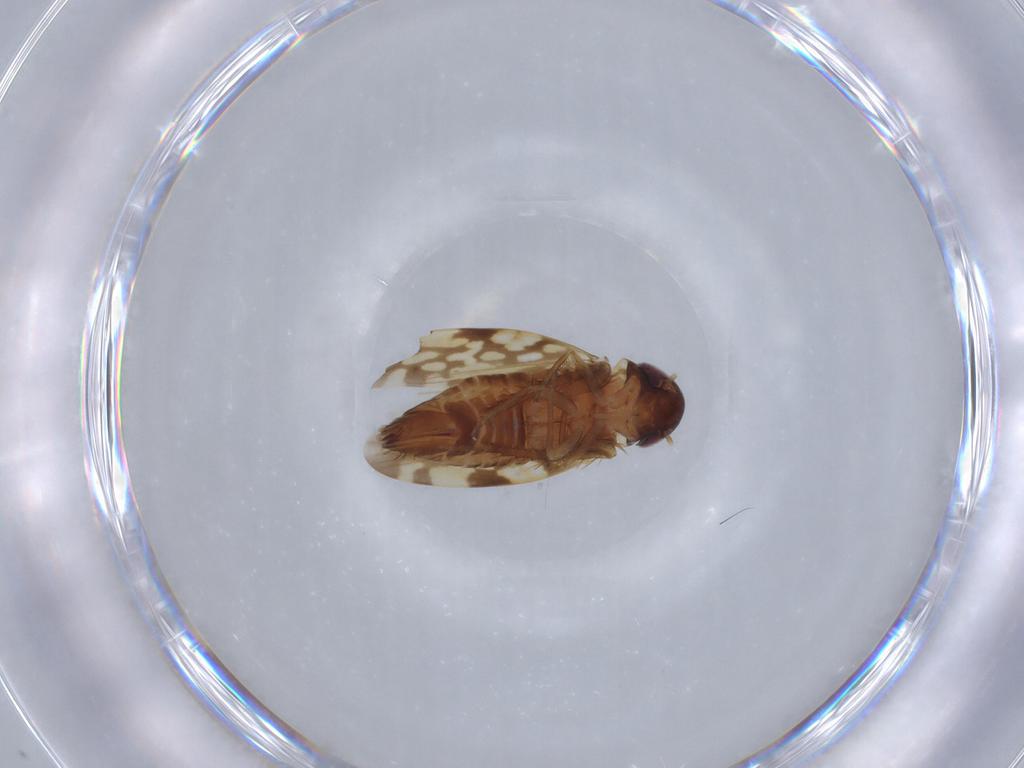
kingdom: Animalia
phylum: Arthropoda
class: Insecta
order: Hemiptera
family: Cicadellidae
